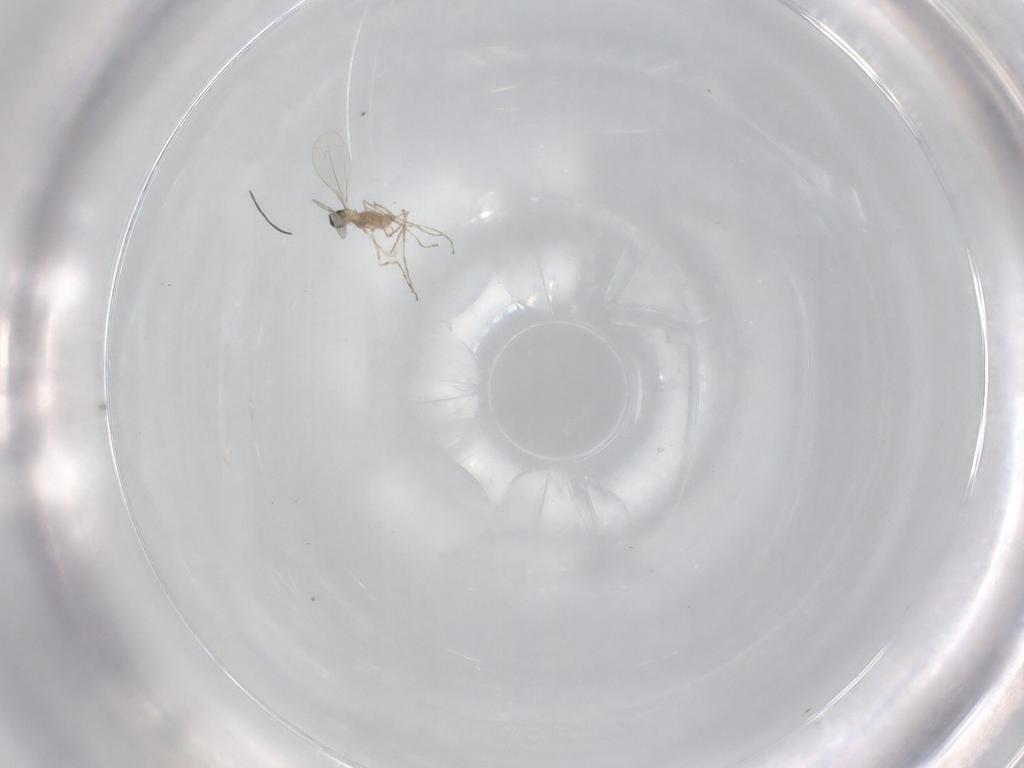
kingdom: Animalia
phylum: Arthropoda
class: Insecta
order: Diptera
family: Cecidomyiidae
